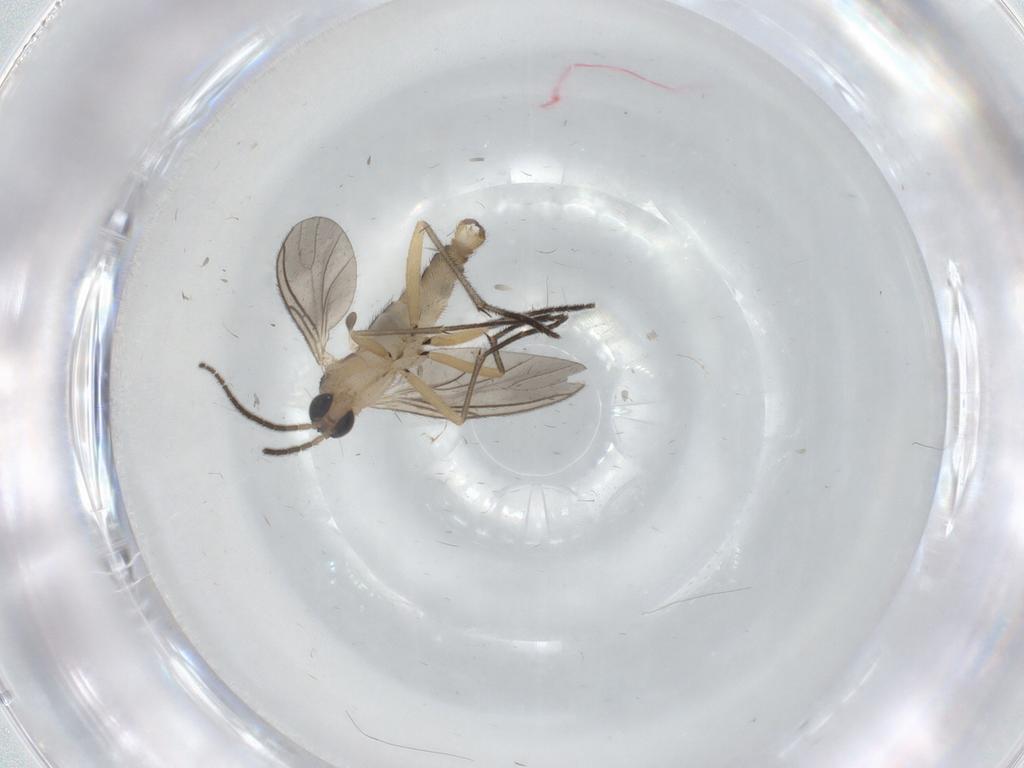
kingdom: Animalia
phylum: Arthropoda
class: Insecta
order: Diptera
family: Sciaridae
